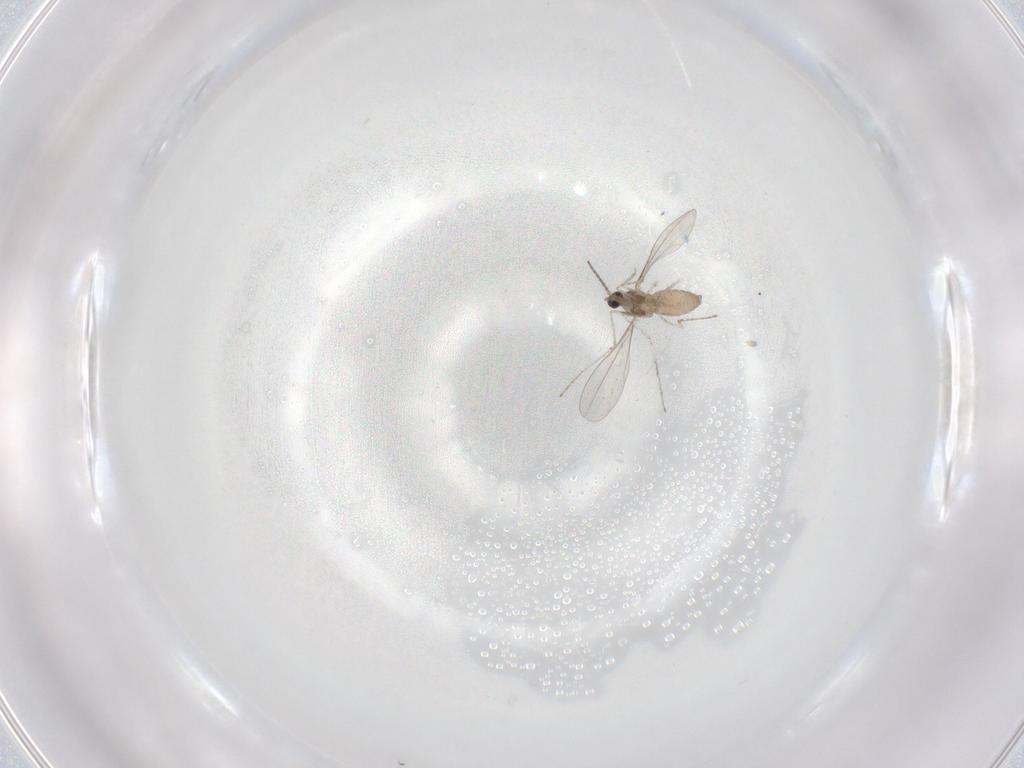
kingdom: Animalia
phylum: Arthropoda
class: Insecta
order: Diptera
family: Cecidomyiidae
